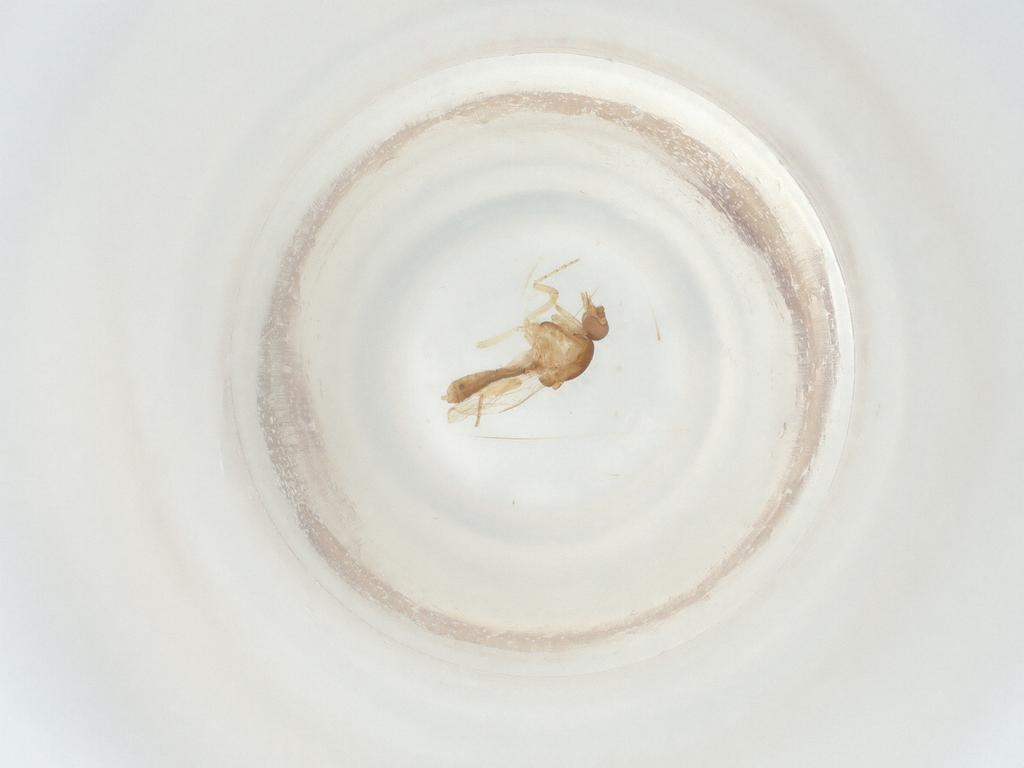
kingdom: Animalia
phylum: Arthropoda
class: Insecta
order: Diptera
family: Ceratopogonidae
